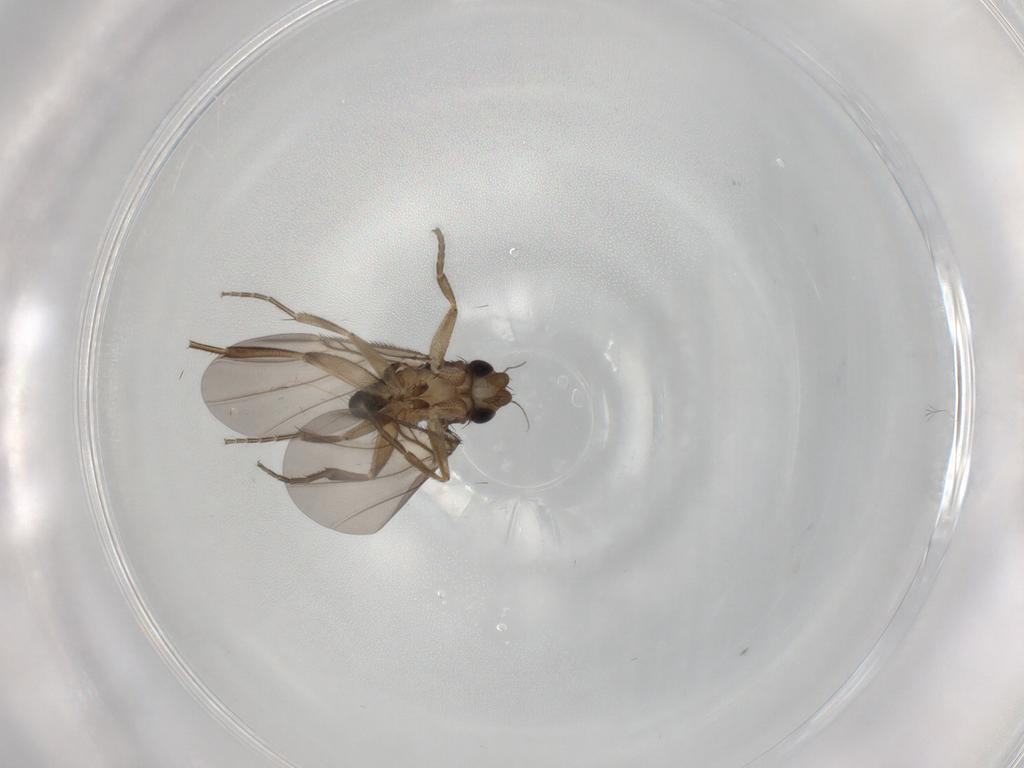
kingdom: Animalia
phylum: Arthropoda
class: Insecta
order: Diptera
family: Phoridae
